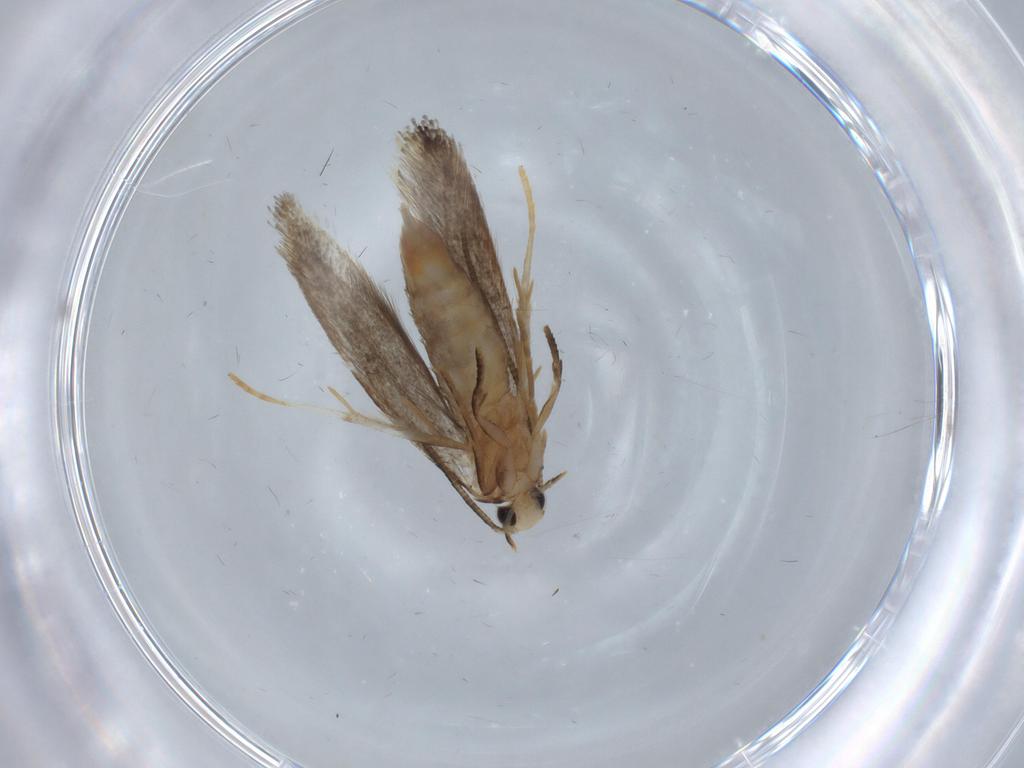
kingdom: Animalia
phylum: Arthropoda
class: Insecta
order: Lepidoptera
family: Tineidae
